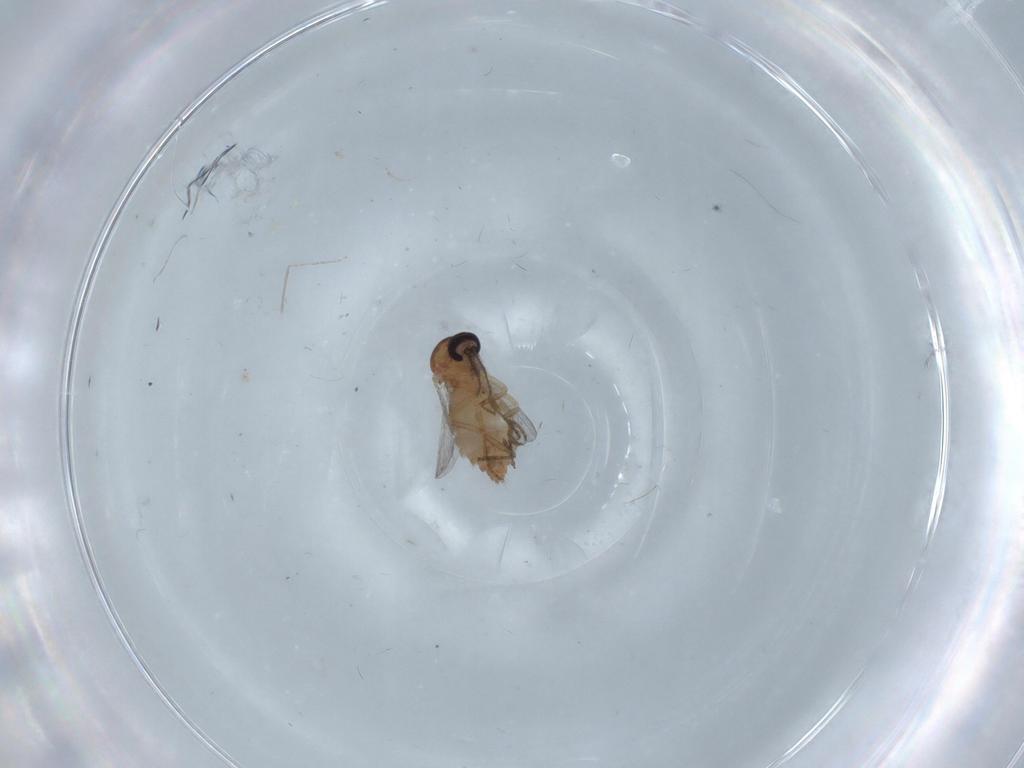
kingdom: Animalia
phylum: Arthropoda
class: Insecta
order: Diptera
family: Ceratopogonidae
